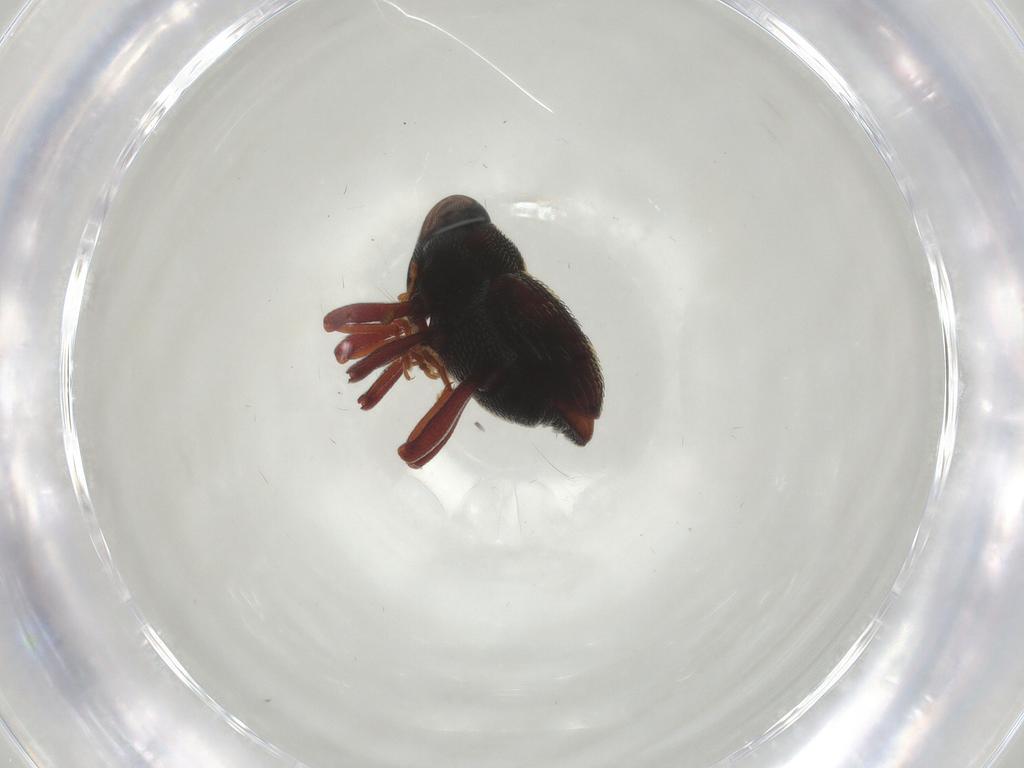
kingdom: Animalia
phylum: Arthropoda
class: Insecta
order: Coleoptera
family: Curculionidae
